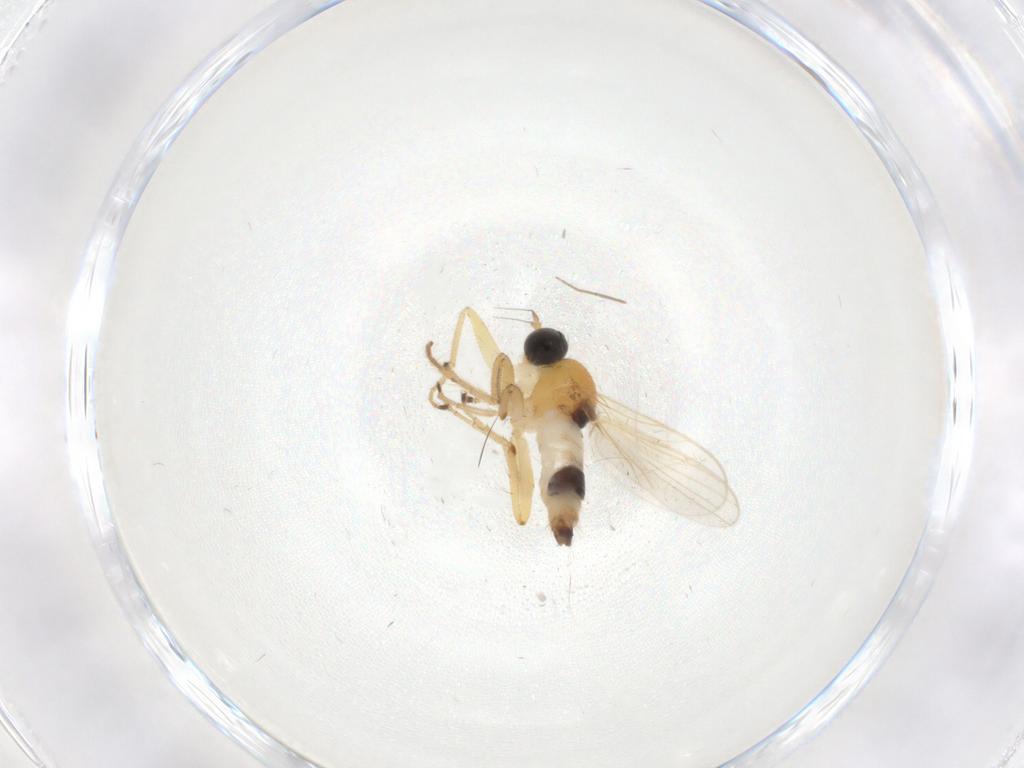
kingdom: Animalia
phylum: Arthropoda
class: Insecta
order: Diptera
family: Hybotidae
